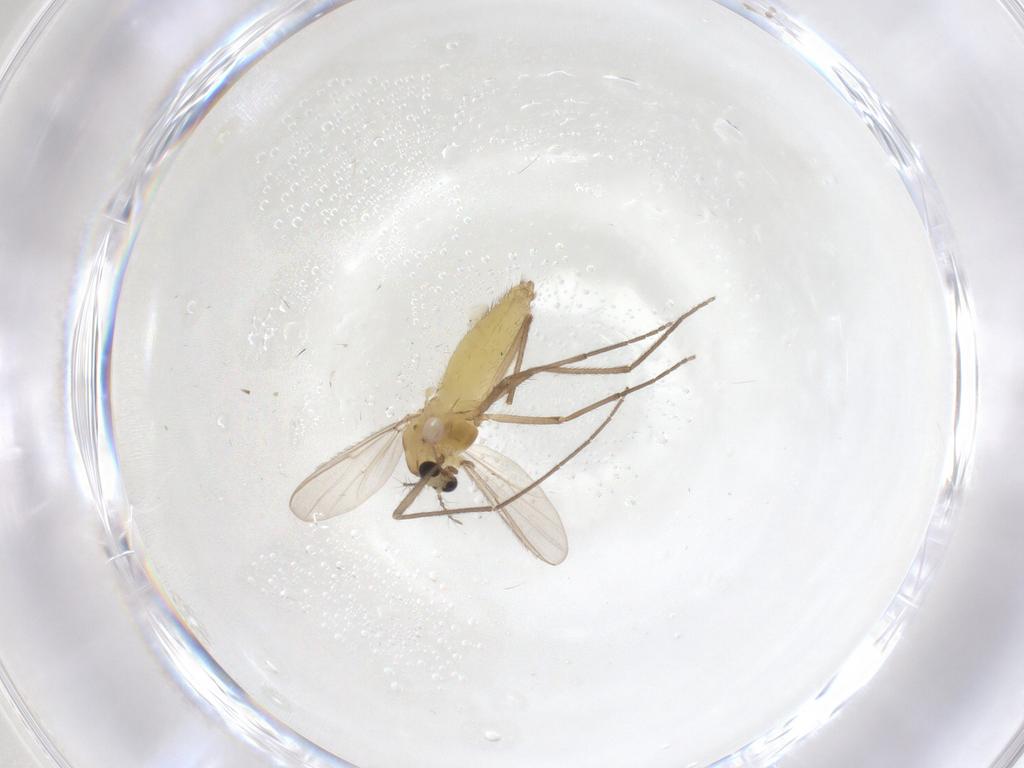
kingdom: Animalia
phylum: Arthropoda
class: Insecta
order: Diptera
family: Chironomidae
